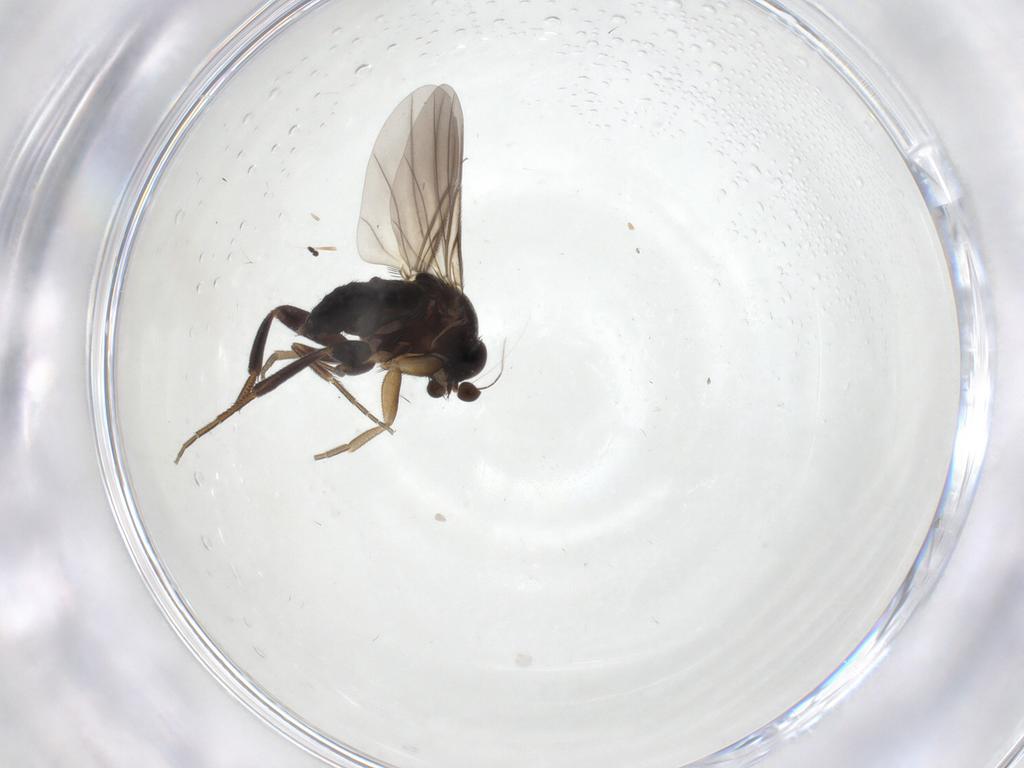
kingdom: Animalia
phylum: Arthropoda
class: Insecta
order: Diptera
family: Phoridae
